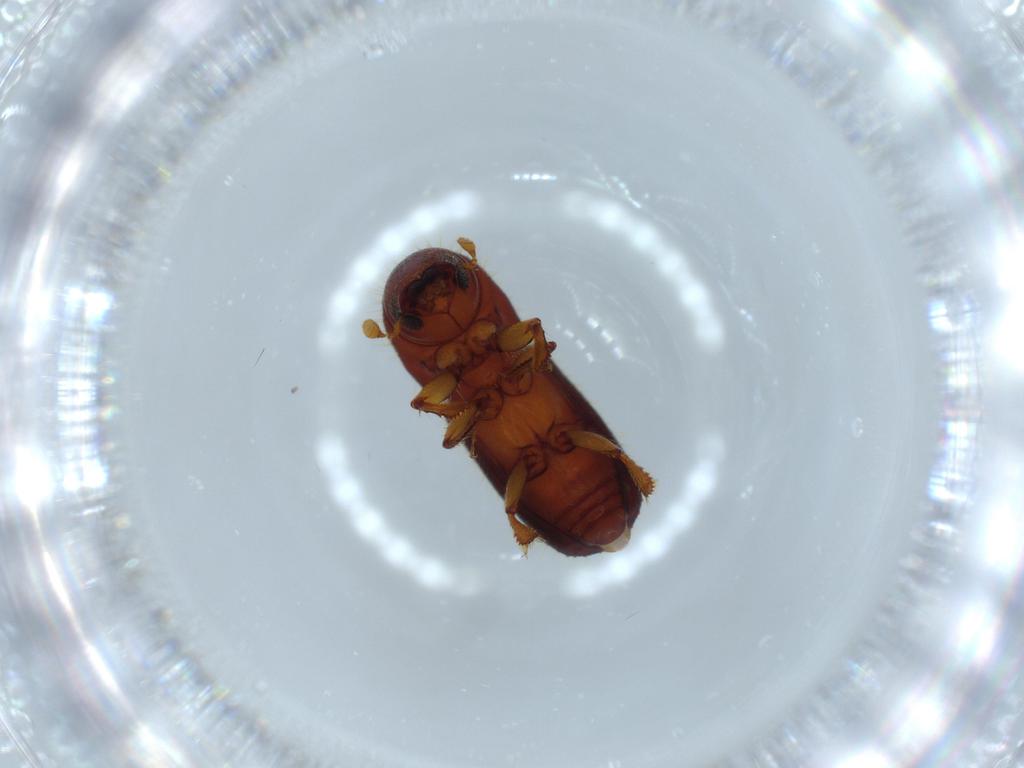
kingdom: Animalia
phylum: Arthropoda
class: Insecta
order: Coleoptera
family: Curculionidae
